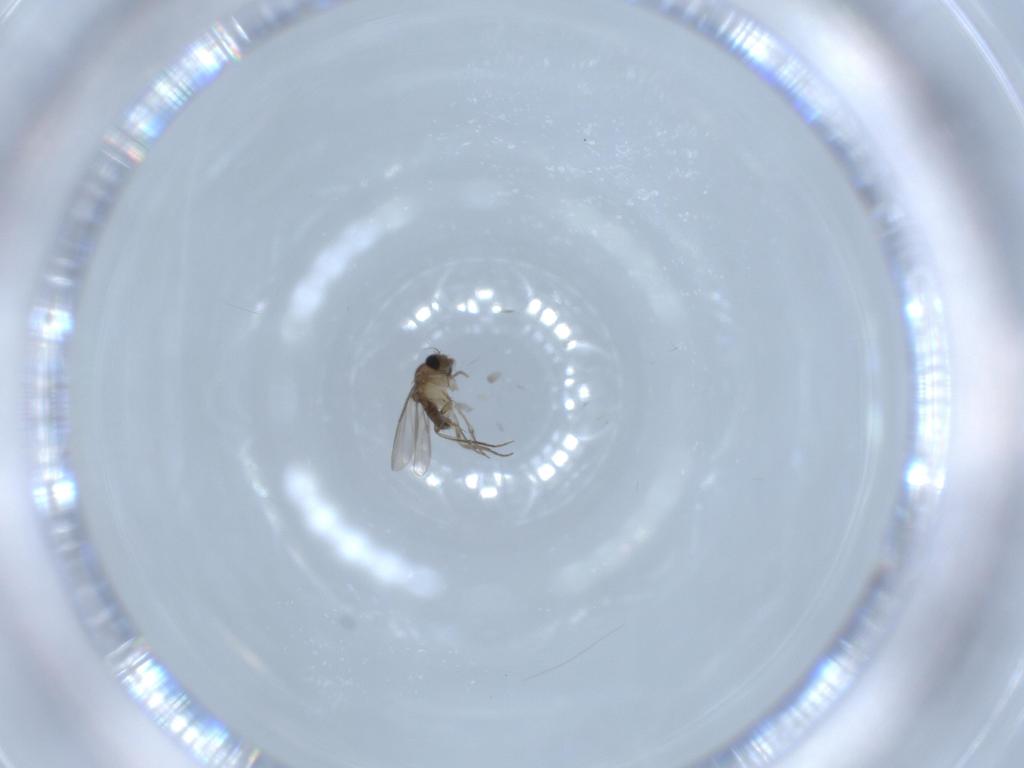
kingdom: Animalia
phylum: Arthropoda
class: Insecta
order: Diptera
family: Phoridae
